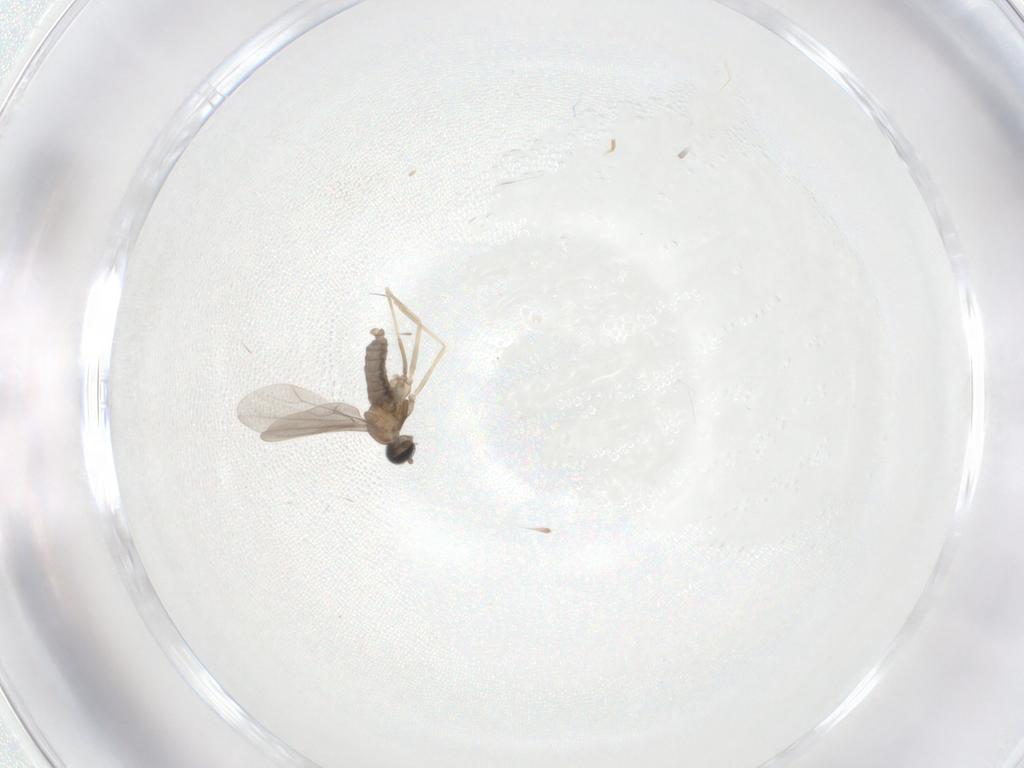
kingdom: Animalia
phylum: Arthropoda
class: Insecta
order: Diptera
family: Cecidomyiidae
